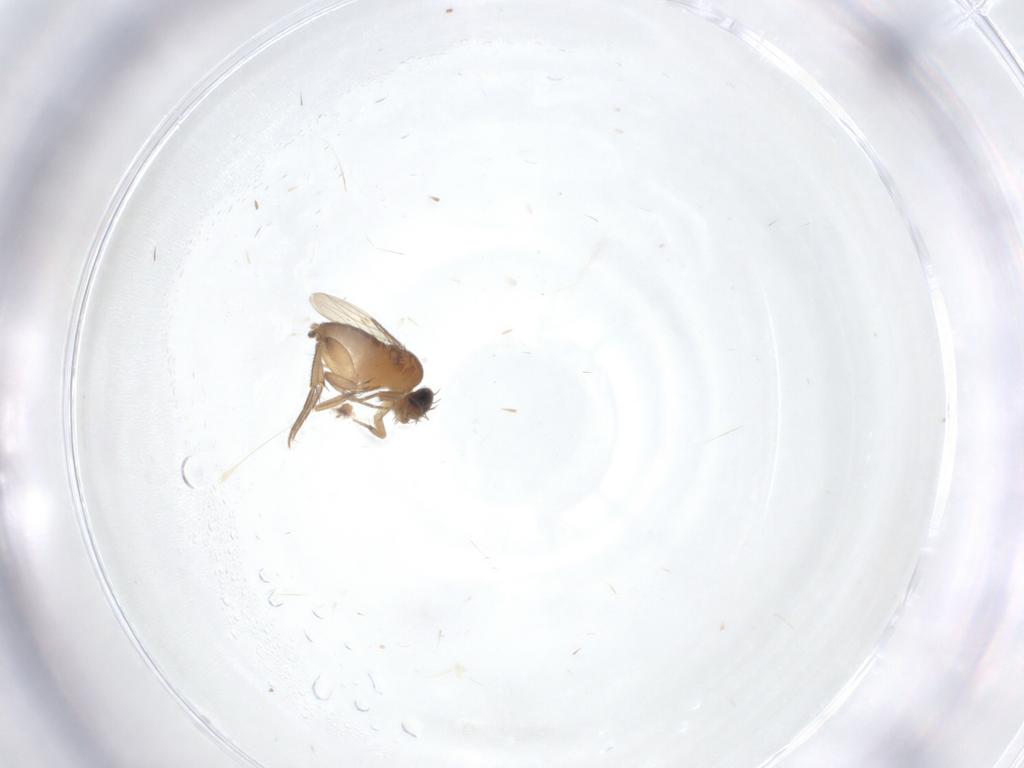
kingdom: Animalia
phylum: Arthropoda
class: Insecta
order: Diptera
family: Phoridae
